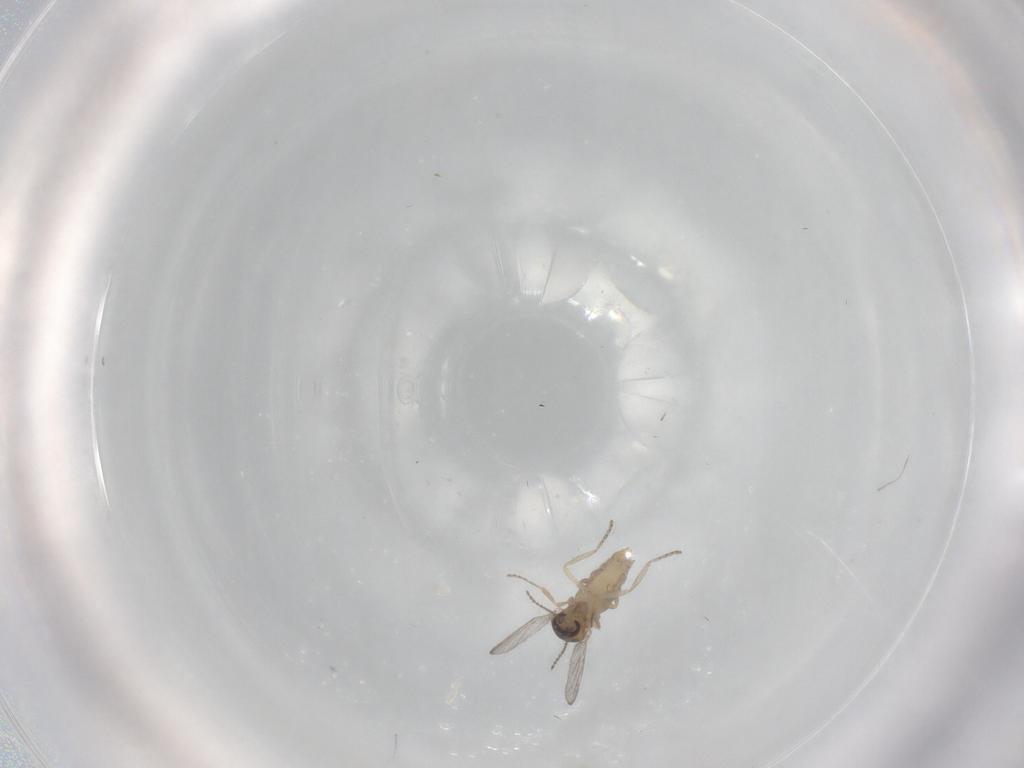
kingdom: Animalia
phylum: Arthropoda
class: Insecta
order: Diptera
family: Ceratopogonidae
